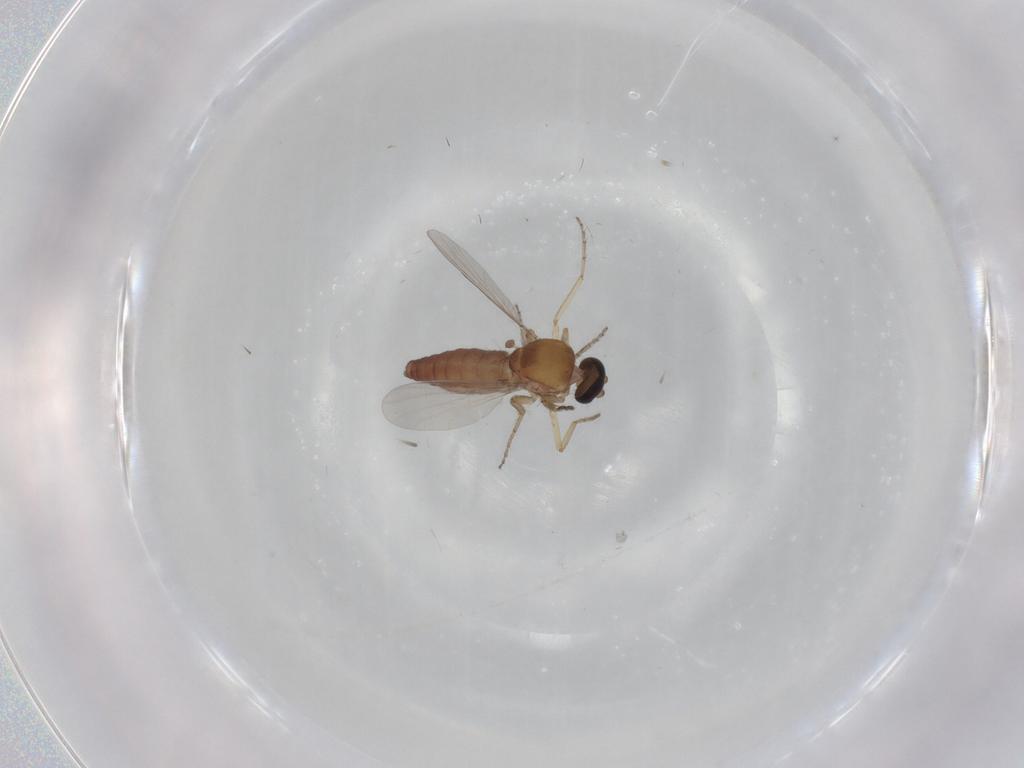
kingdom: Animalia
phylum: Arthropoda
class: Insecta
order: Diptera
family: Ceratopogonidae
